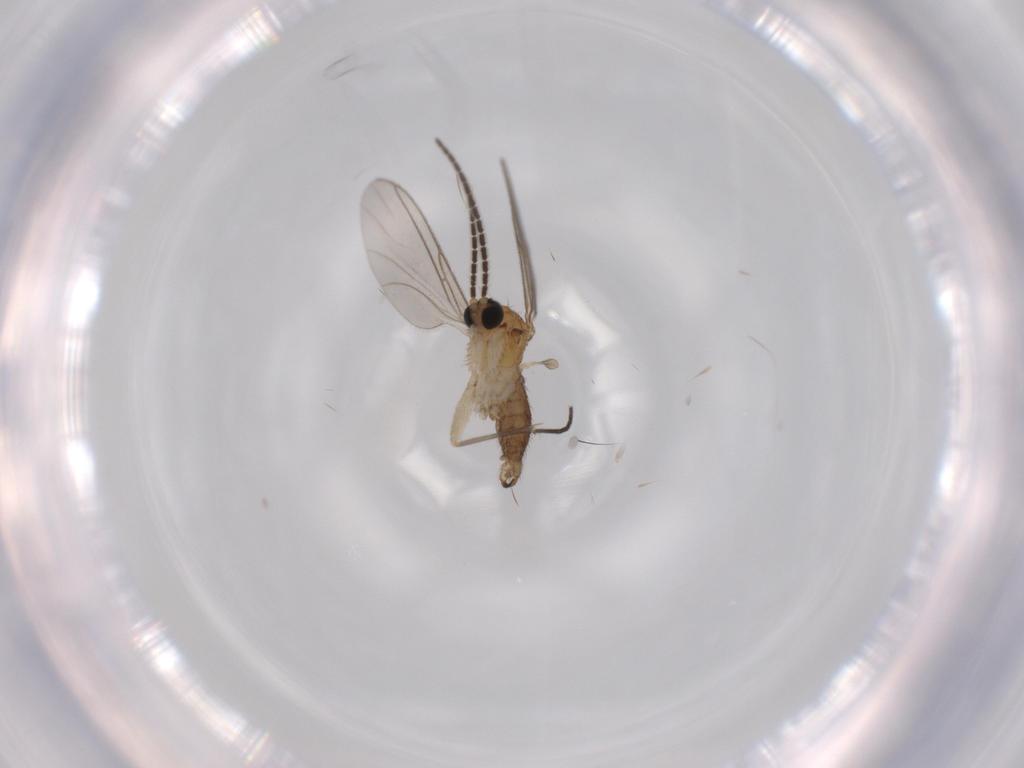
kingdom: Animalia
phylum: Arthropoda
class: Insecta
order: Diptera
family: Sciaridae
